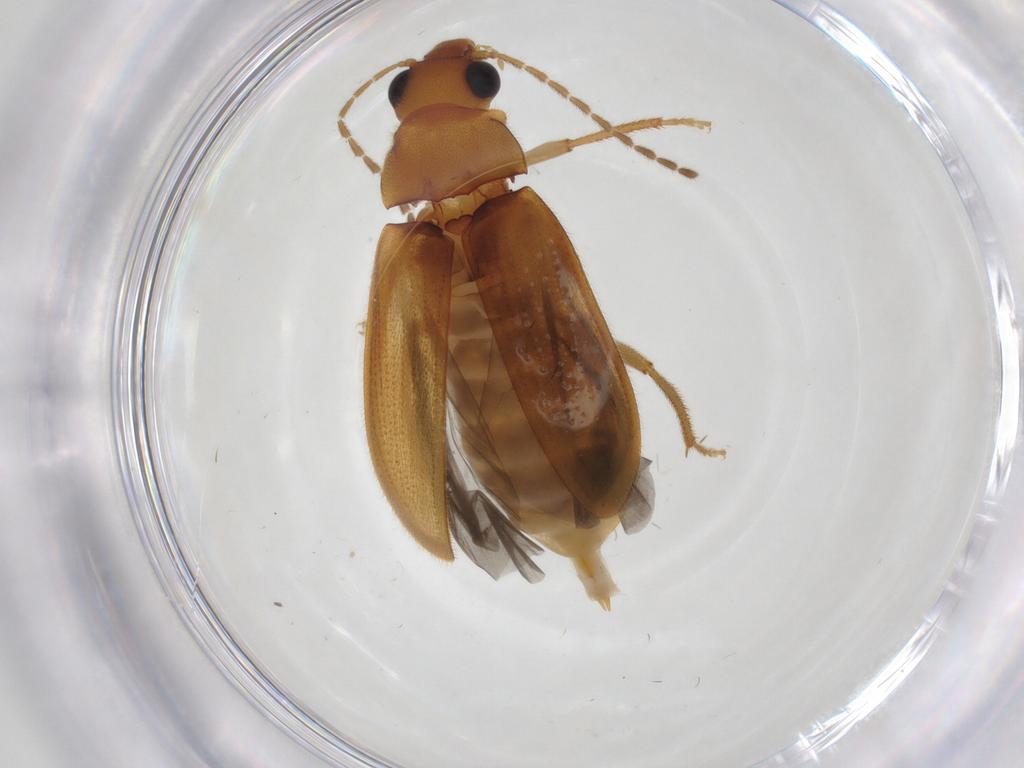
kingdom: Animalia
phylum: Arthropoda
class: Insecta
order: Coleoptera
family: Ptilodactylidae
